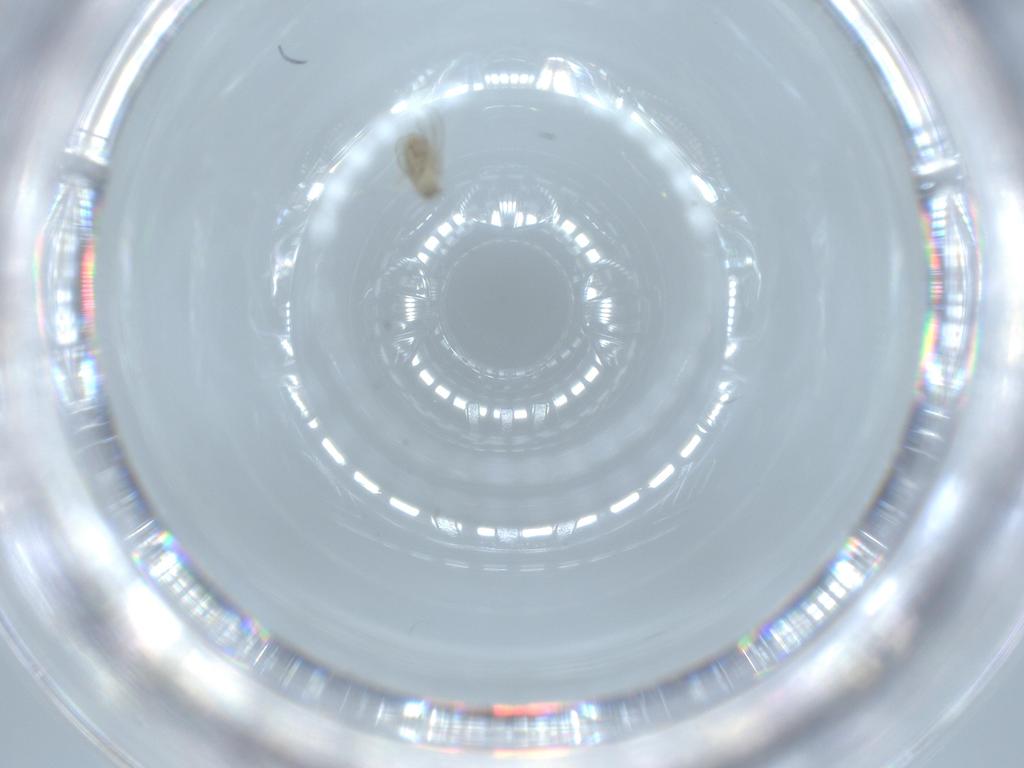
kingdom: Animalia
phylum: Arthropoda
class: Insecta
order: Diptera
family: Cecidomyiidae
